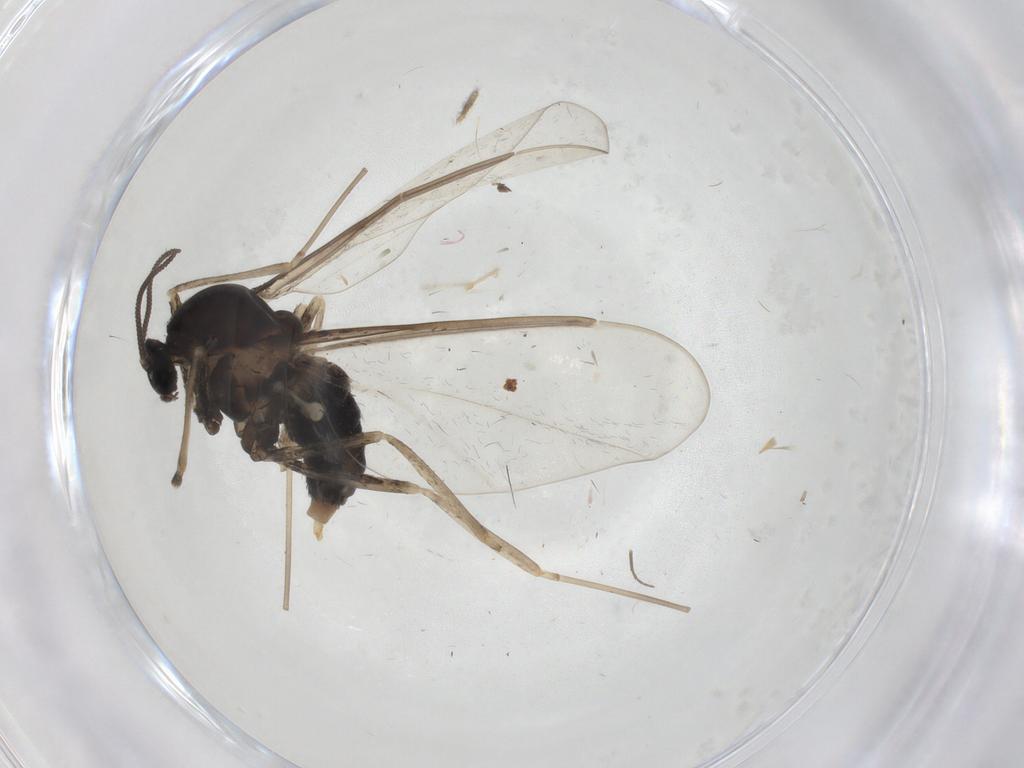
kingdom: Animalia
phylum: Arthropoda
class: Insecta
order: Diptera
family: Cecidomyiidae
